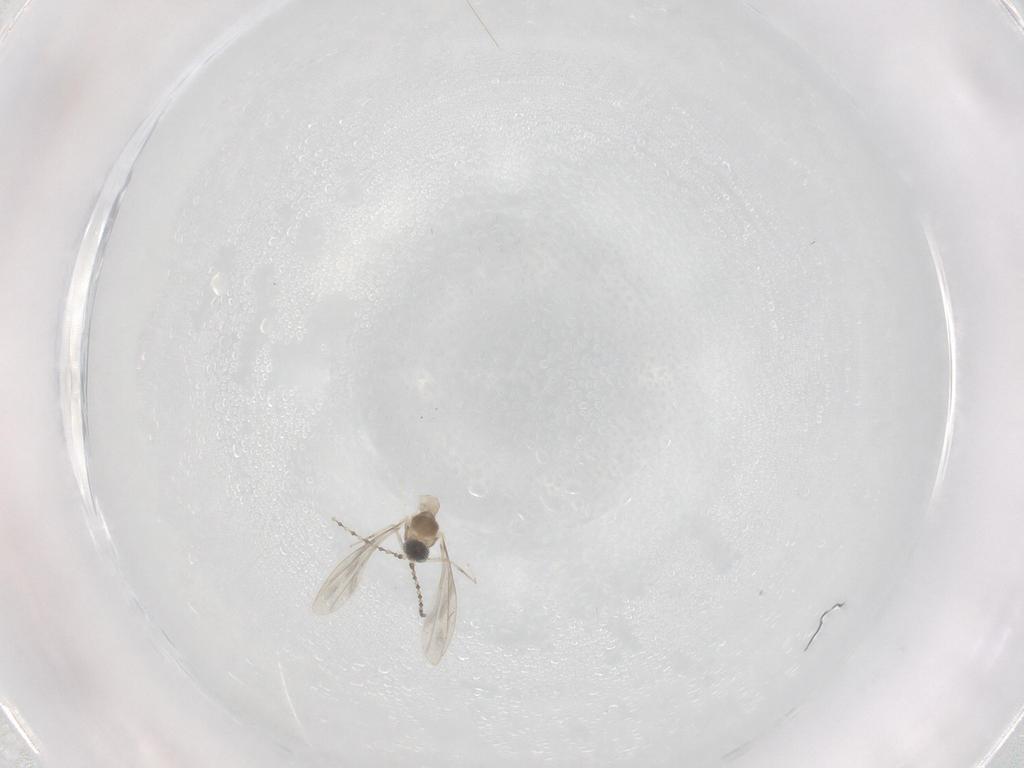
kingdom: Animalia
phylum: Arthropoda
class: Insecta
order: Diptera
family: Cecidomyiidae
